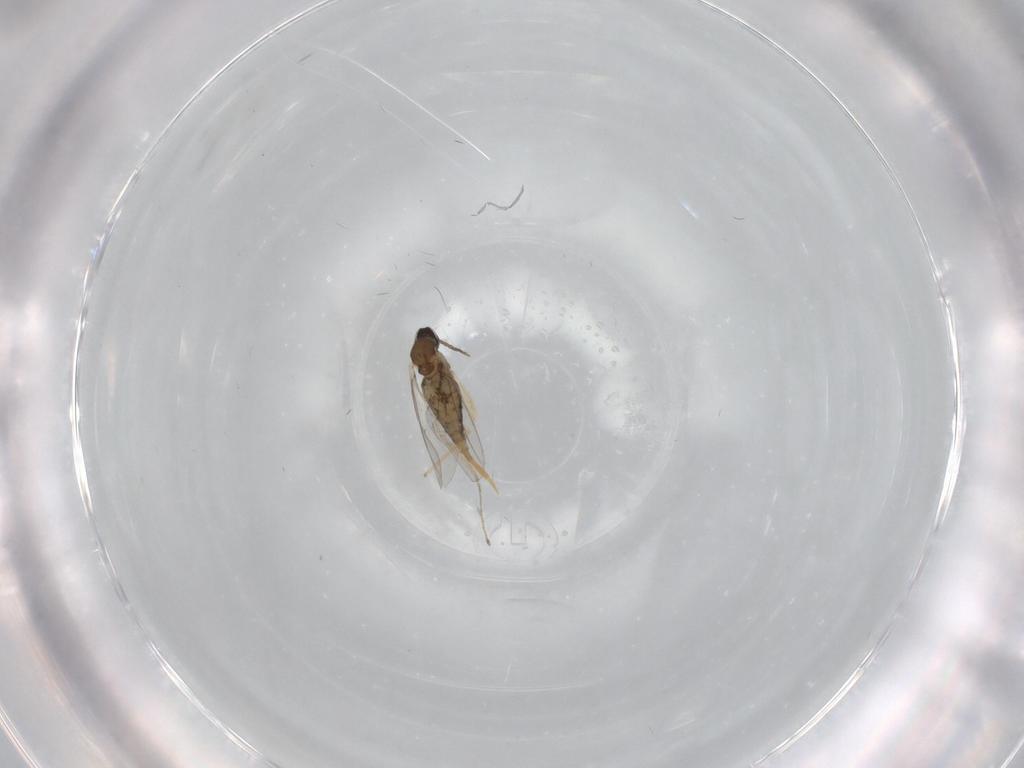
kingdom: Animalia
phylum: Arthropoda
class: Insecta
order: Diptera
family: Cecidomyiidae
